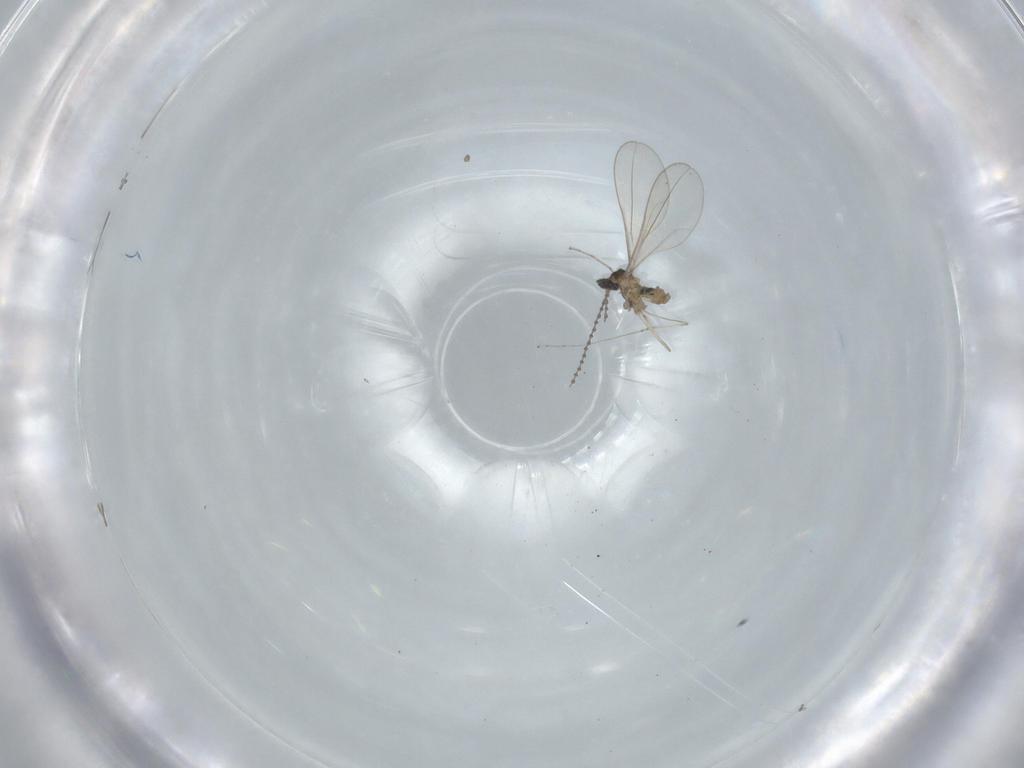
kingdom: Animalia
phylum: Arthropoda
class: Insecta
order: Diptera
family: Cecidomyiidae
